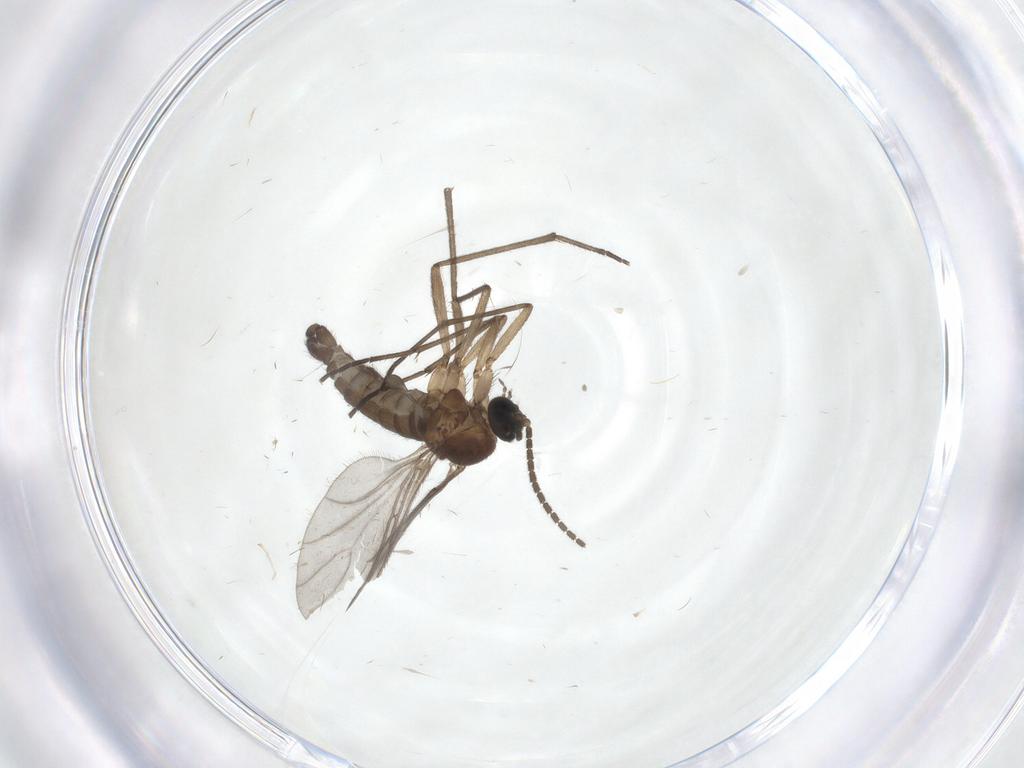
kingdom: Animalia
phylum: Arthropoda
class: Insecta
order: Diptera
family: Sciaridae
